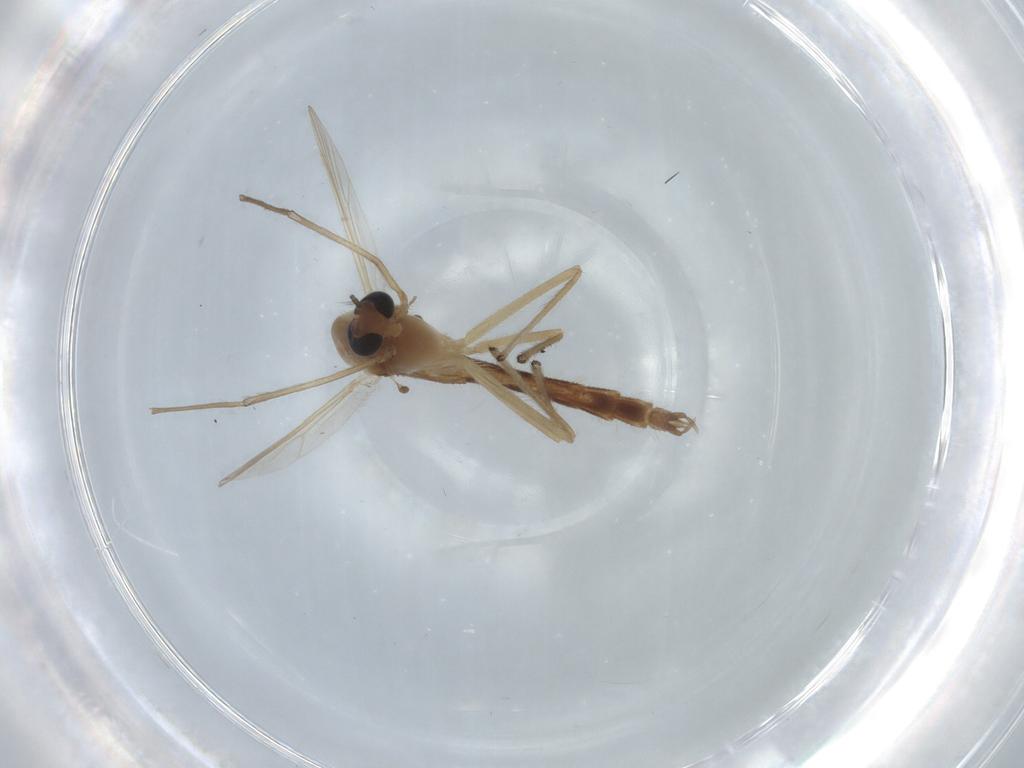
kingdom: Animalia
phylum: Arthropoda
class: Insecta
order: Diptera
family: Chironomidae
